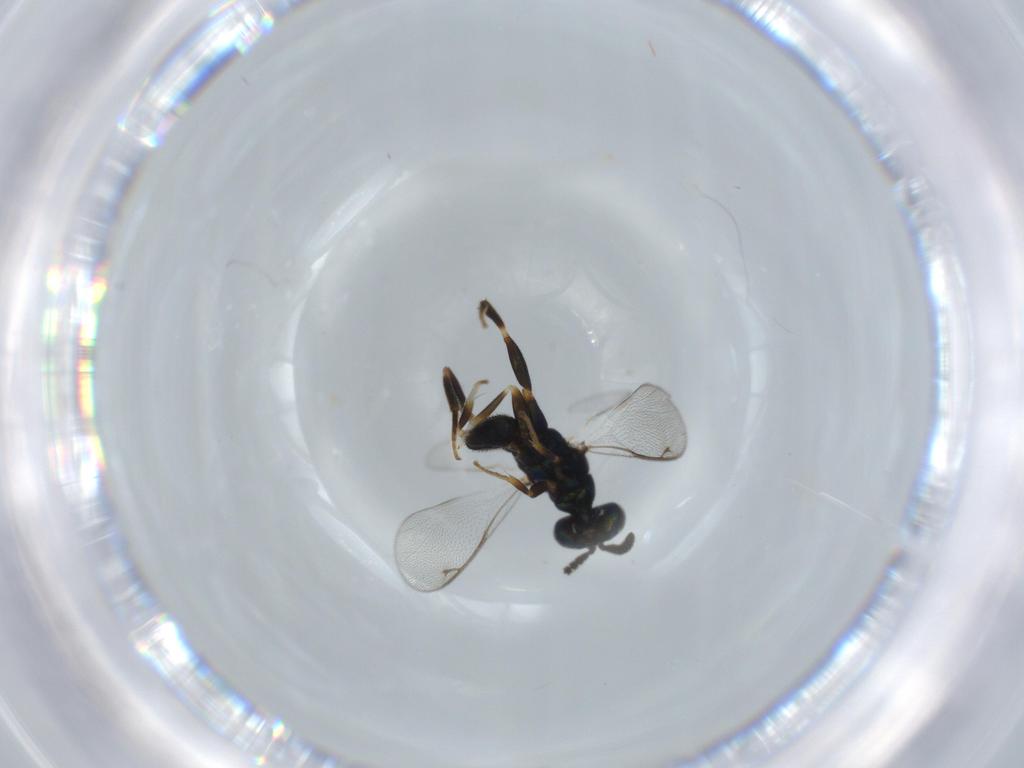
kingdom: Animalia
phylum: Arthropoda
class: Insecta
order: Hymenoptera
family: Cleonyminae
